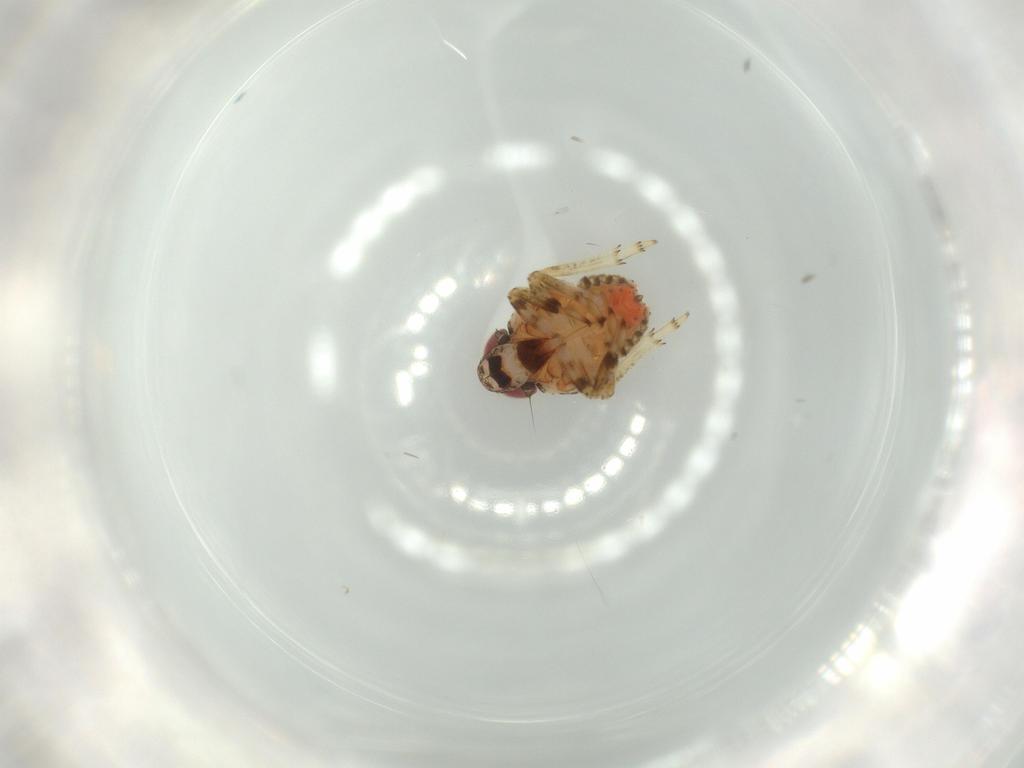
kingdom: Animalia
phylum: Arthropoda
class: Insecta
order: Hemiptera
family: Issidae
